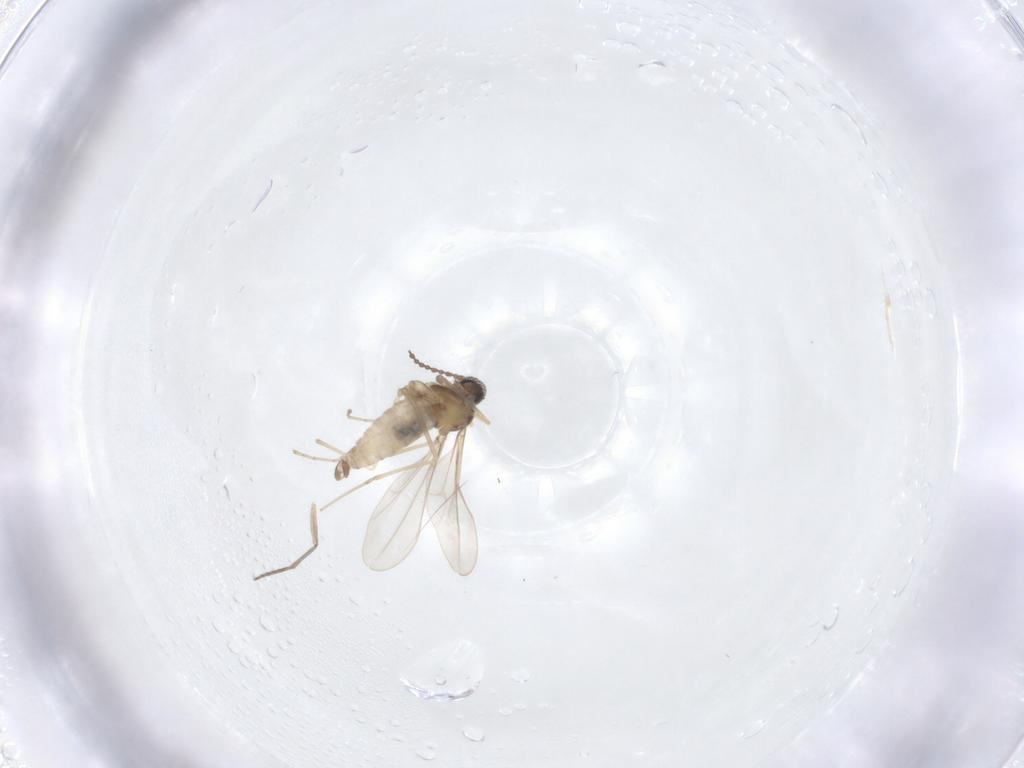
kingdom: Animalia
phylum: Arthropoda
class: Insecta
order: Diptera
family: Sciaridae
